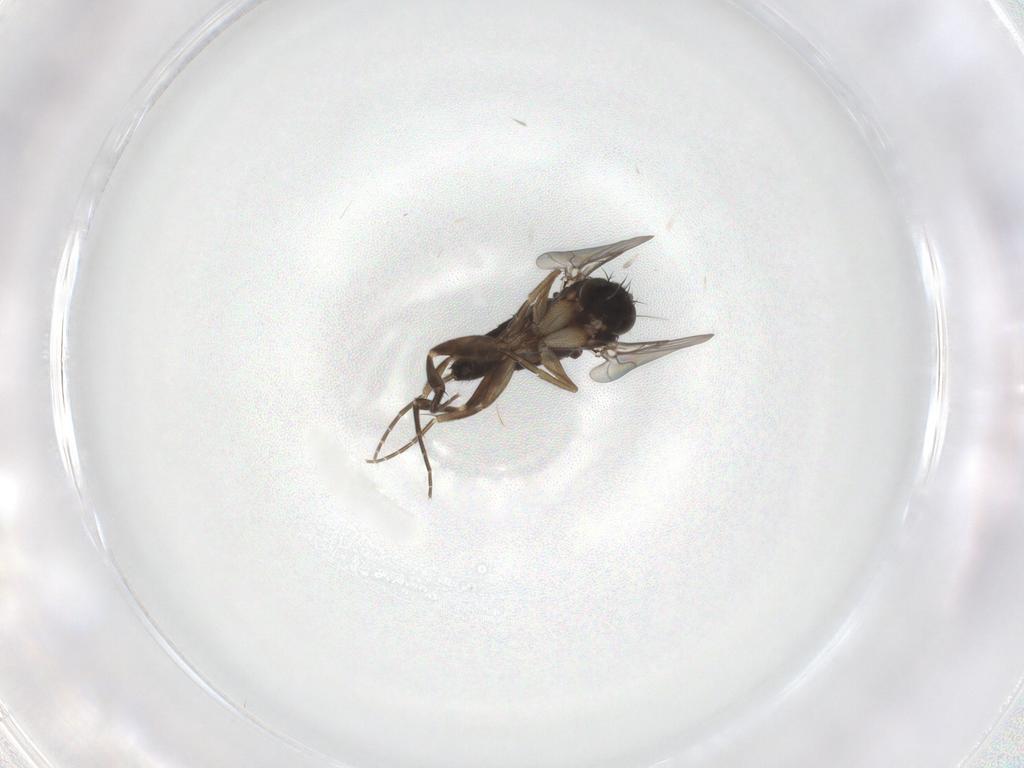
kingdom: Animalia
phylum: Arthropoda
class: Insecta
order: Diptera
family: Phoridae
